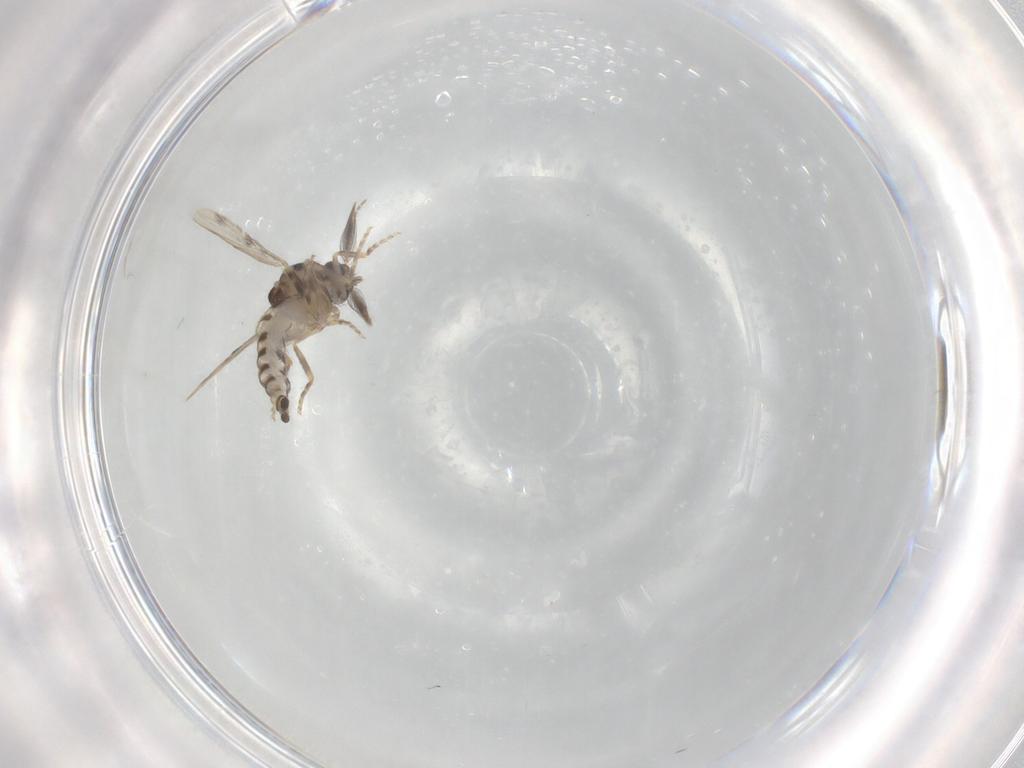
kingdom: Animalia
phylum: Arthropoda
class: Insecta
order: Diptera
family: Ceratopogonidae
